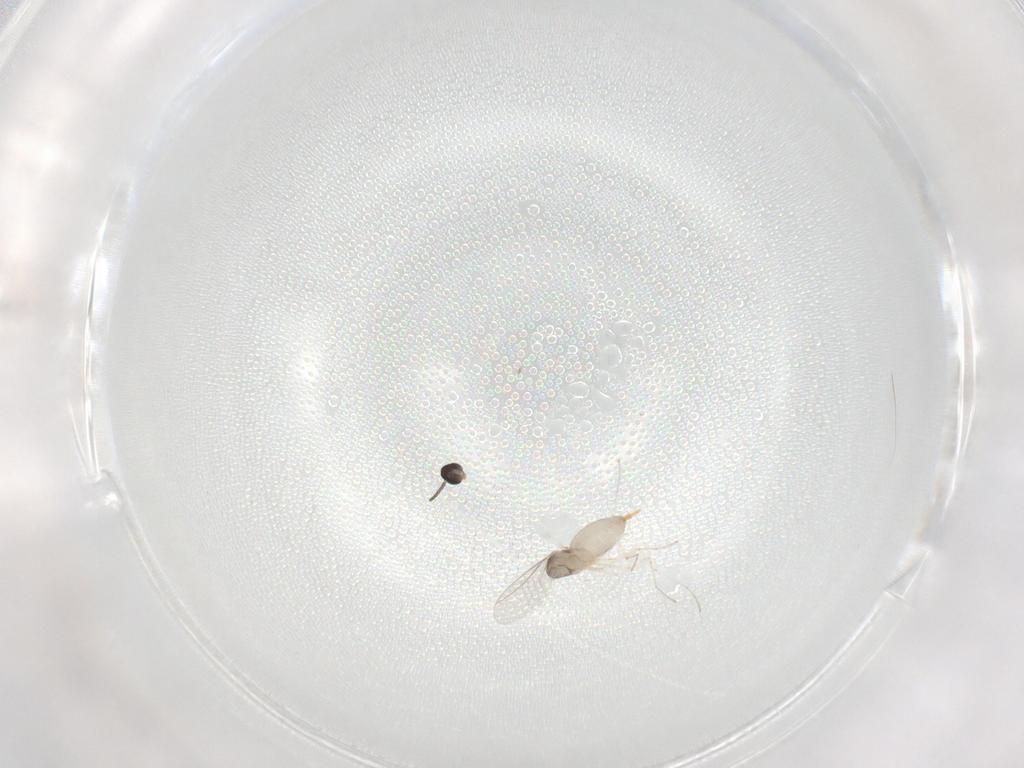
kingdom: Animalia
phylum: Arthropoda
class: Insecta
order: Diptera
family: Cecidomyiidae
